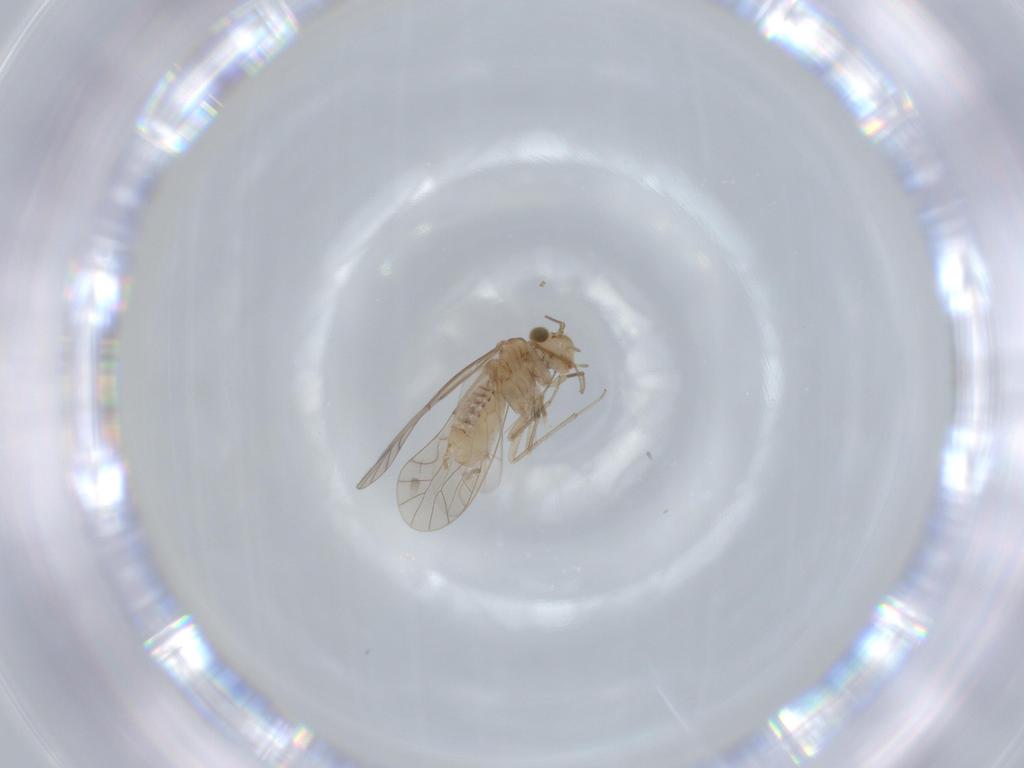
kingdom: Animalia
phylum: Arthropoda
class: Insecta
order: Psocodea
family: Lachesillidae
